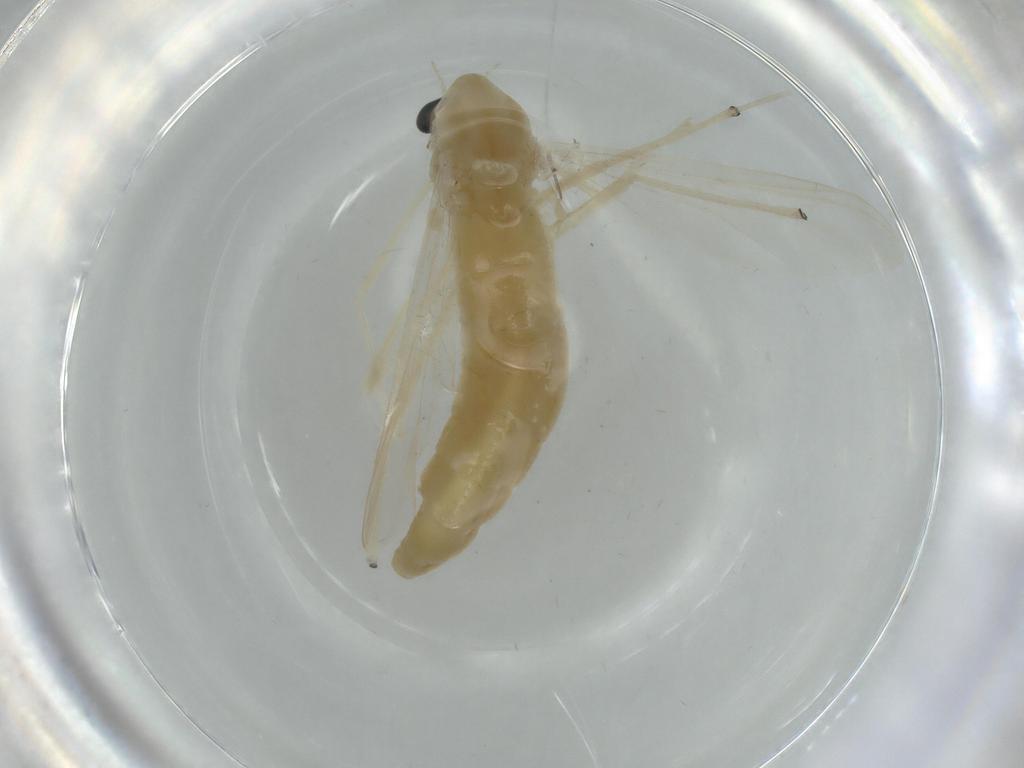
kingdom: Animalia
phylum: Arthropoda
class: Insecta
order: Diptera
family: Chironomidae
